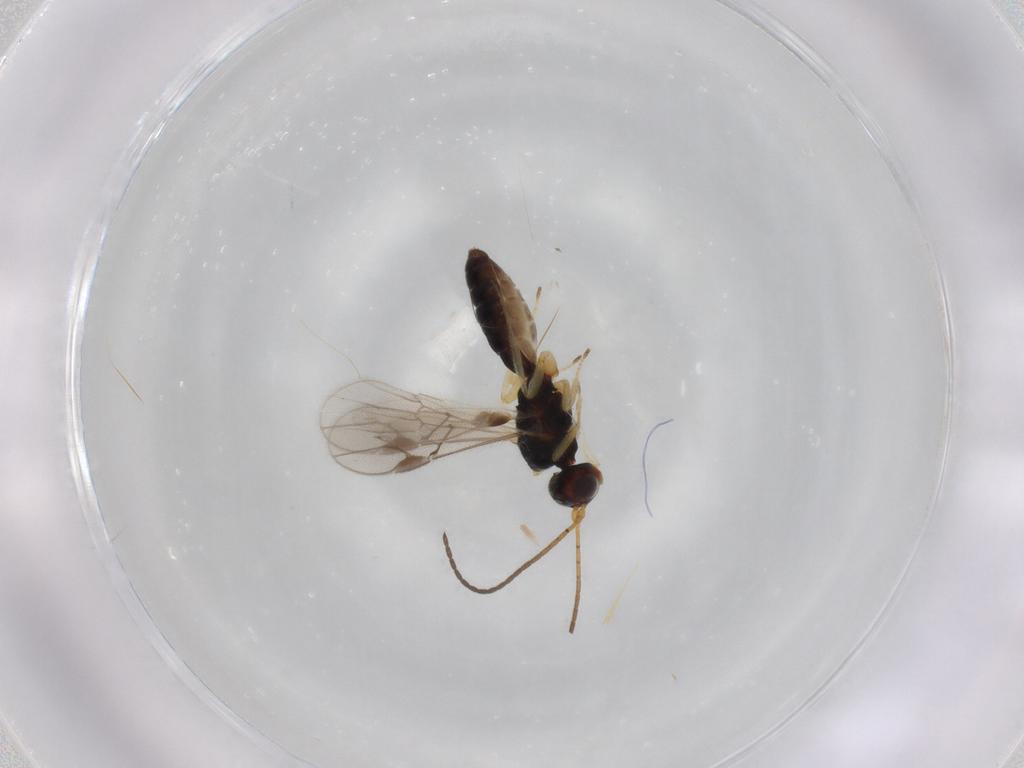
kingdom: Animalia
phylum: Arthropoda
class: Insecta
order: Hymenoptera
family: Braconidae
